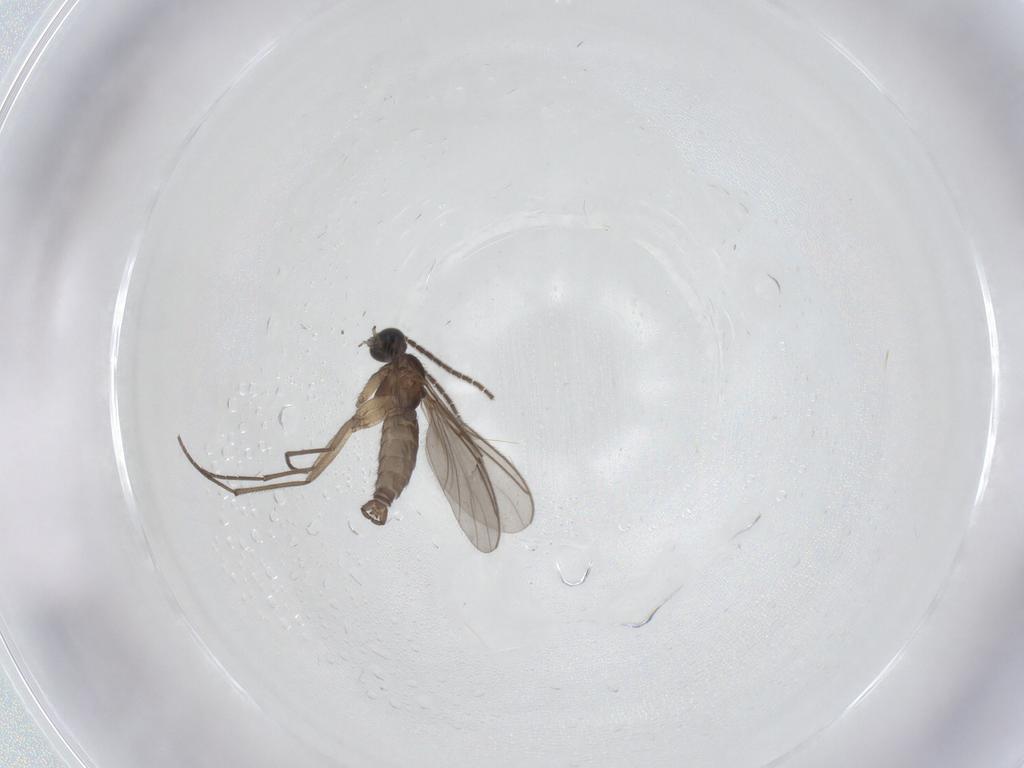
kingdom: Animalia
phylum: Arthropoda
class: Insecta
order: Diptera
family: Sciaridae
